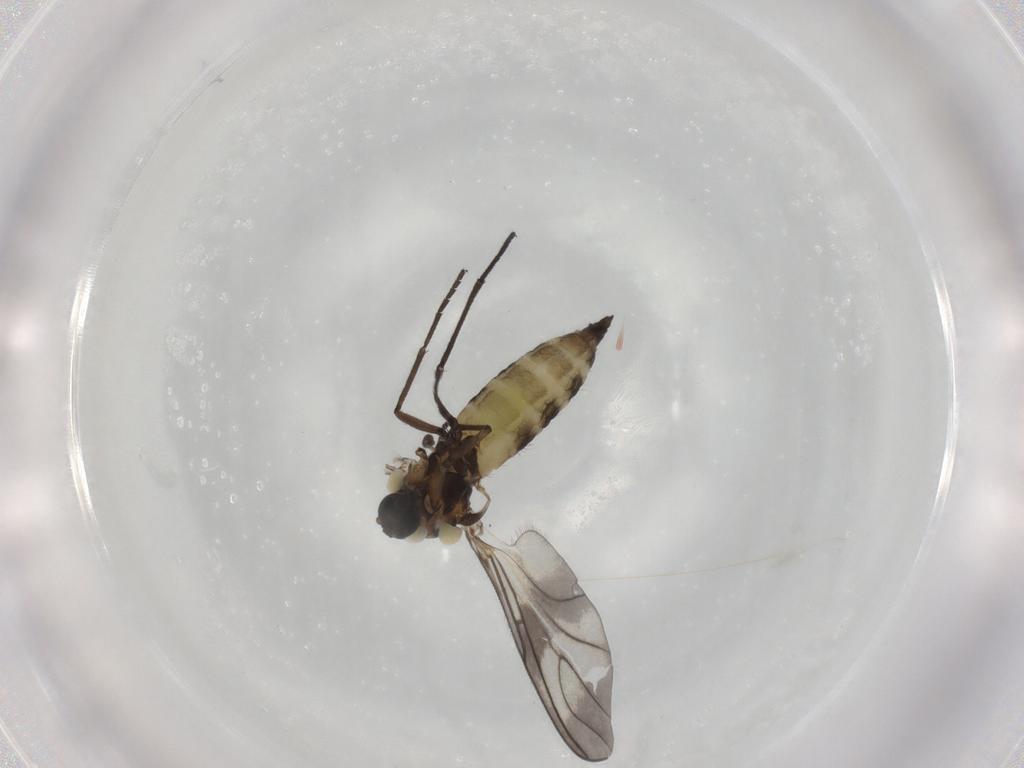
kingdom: Animalia
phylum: Arthropoda
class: Insecta
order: Diptera
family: Sciaridae
